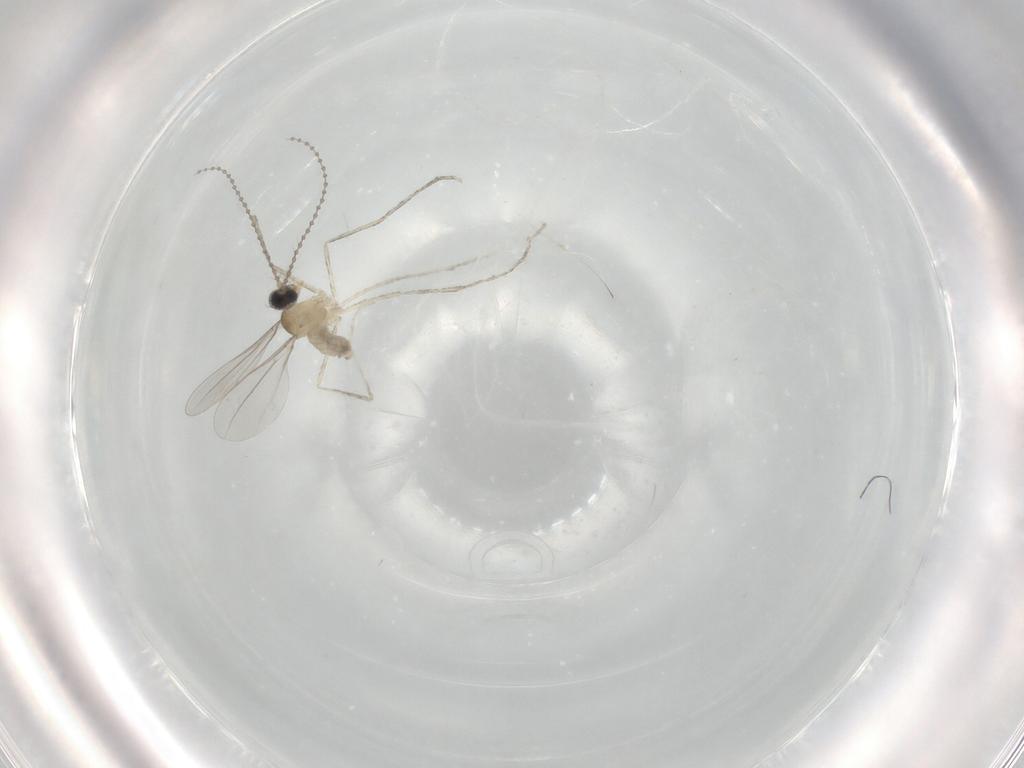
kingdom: Animalia
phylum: Arthropoda
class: Insecta
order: Diptera
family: Cecidomyiidae
